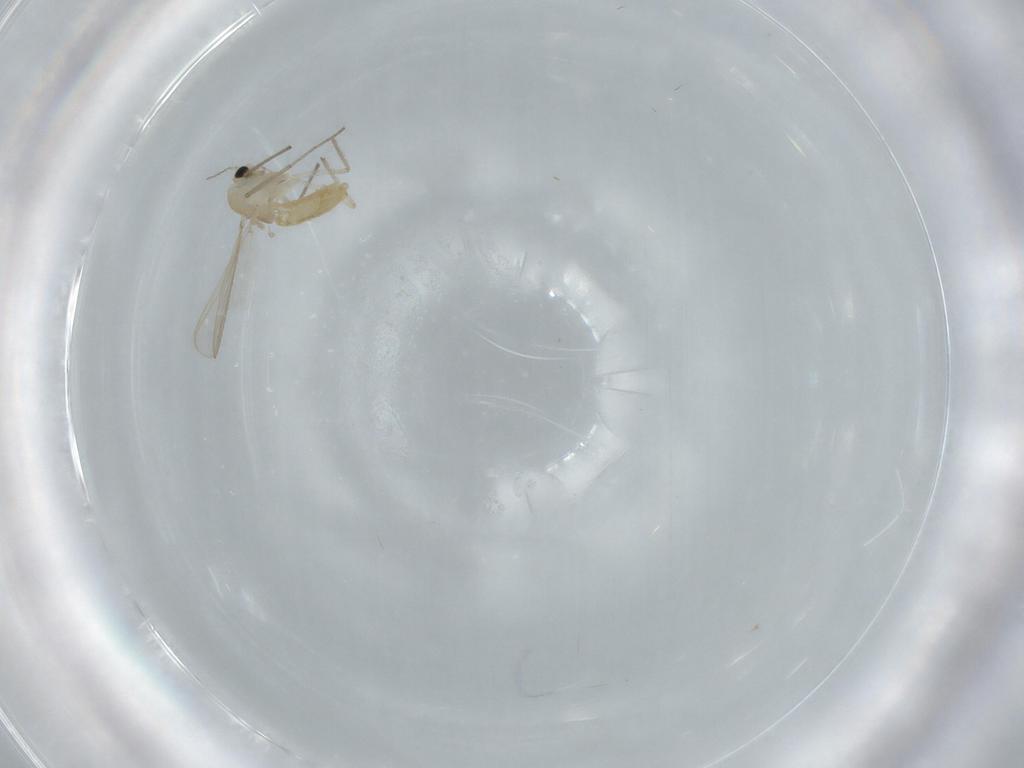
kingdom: Animalia
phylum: Arthropoda
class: Insecta
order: Diptera
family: Chironomidae
